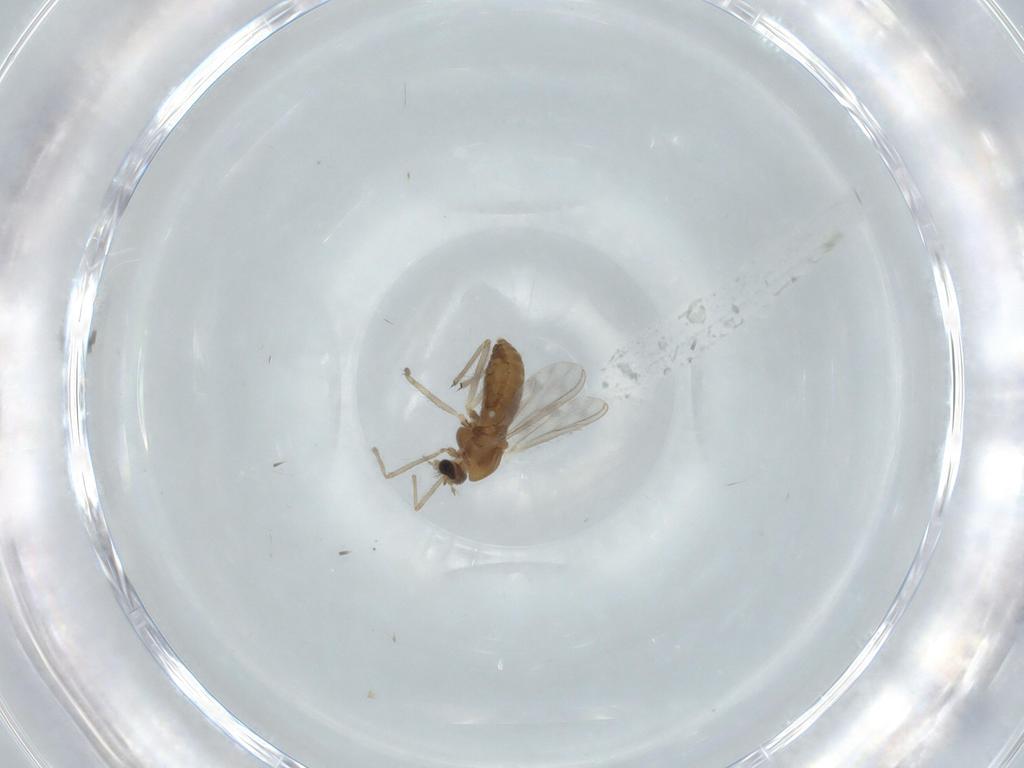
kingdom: Animalia
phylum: Arthropoda
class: Insecta
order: Diptera
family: Chironomidae
